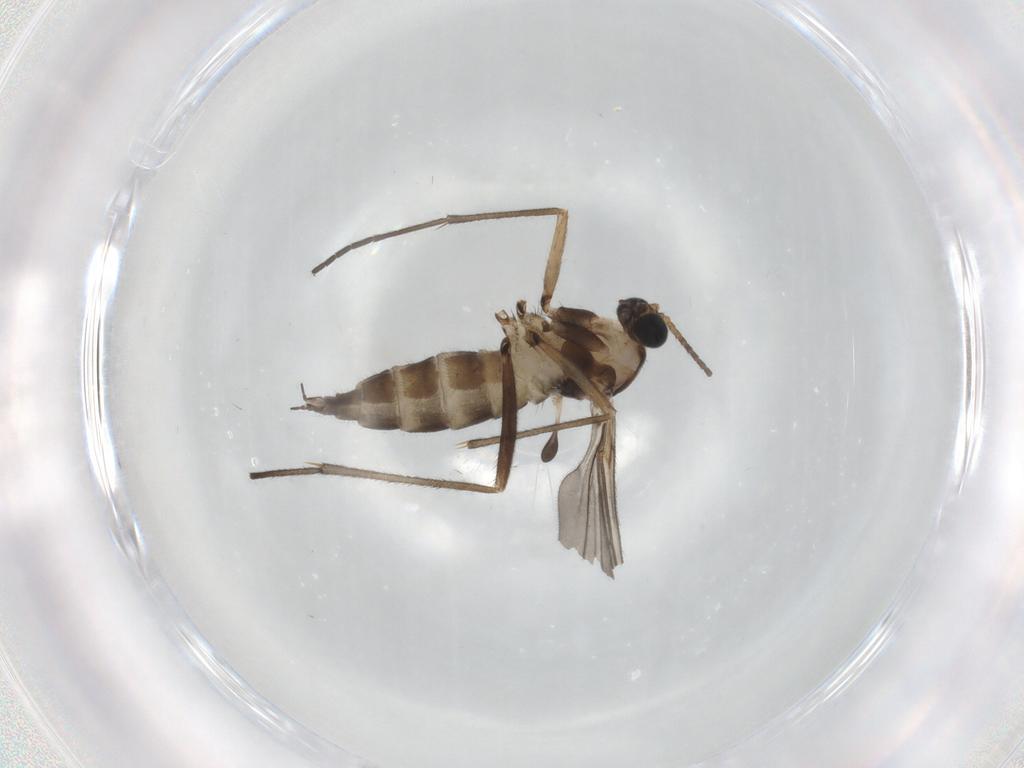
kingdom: Animalia
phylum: Arthropoda
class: Insecta
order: Diptera
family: Sciaridae
